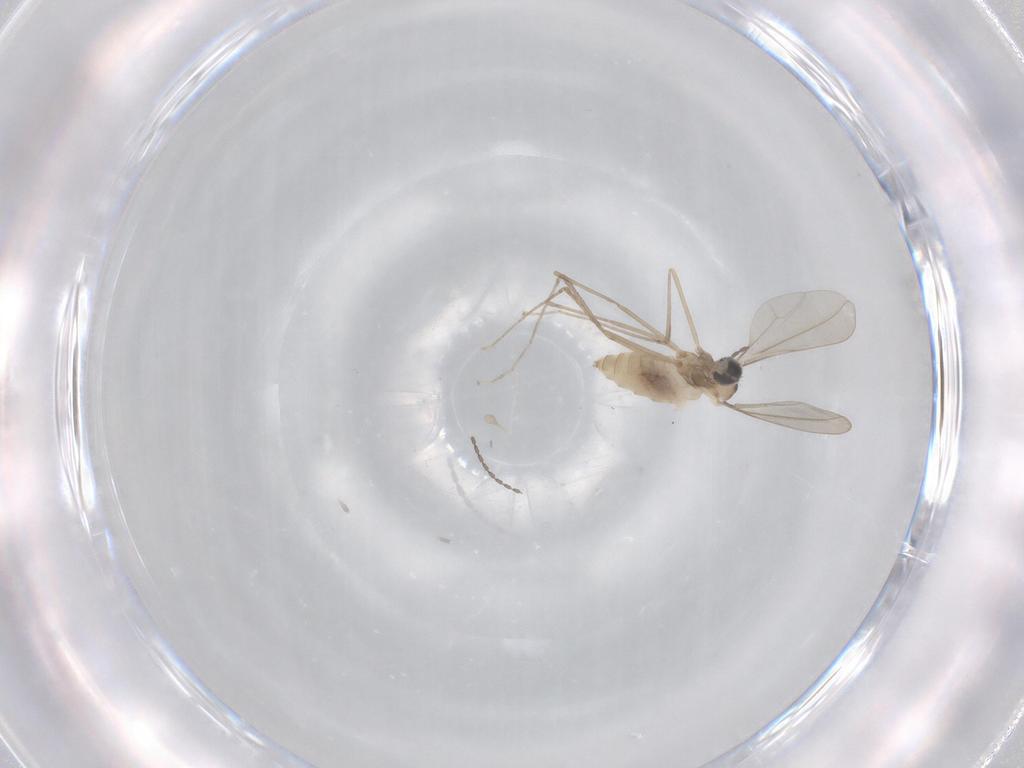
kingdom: Animalia
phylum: Arthropoda
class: Insecta
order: Diptera
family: Cecidomyiidae
